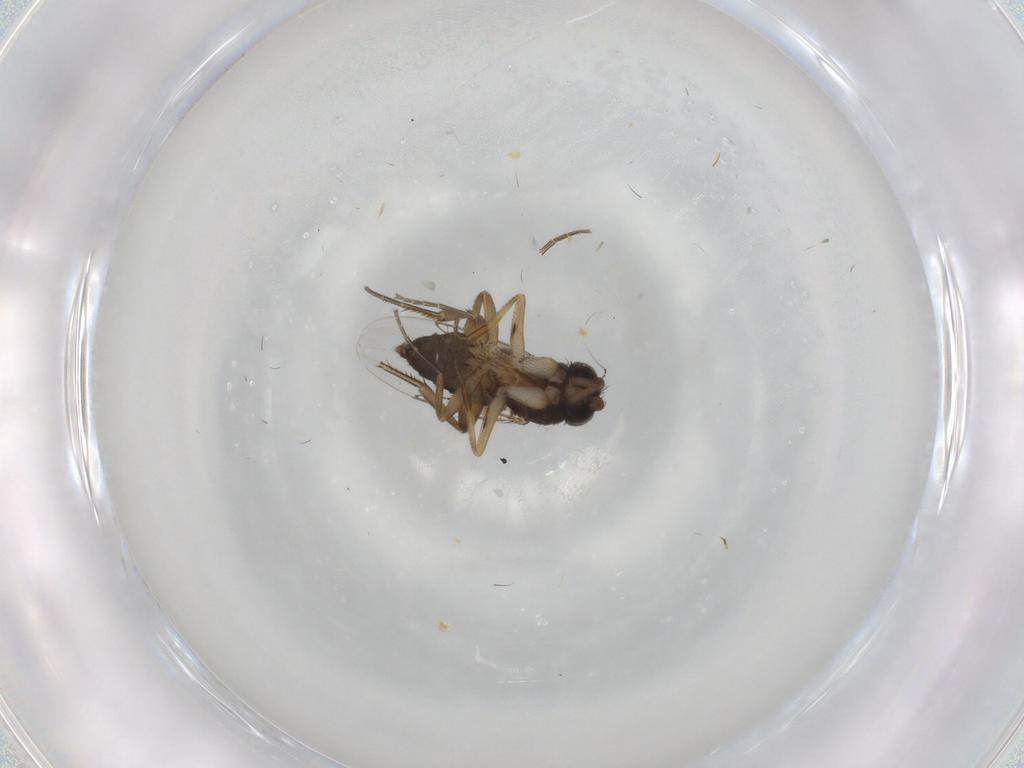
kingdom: Animalia
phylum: Arthropoda
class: Insecta
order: Diptera
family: Phoridae
